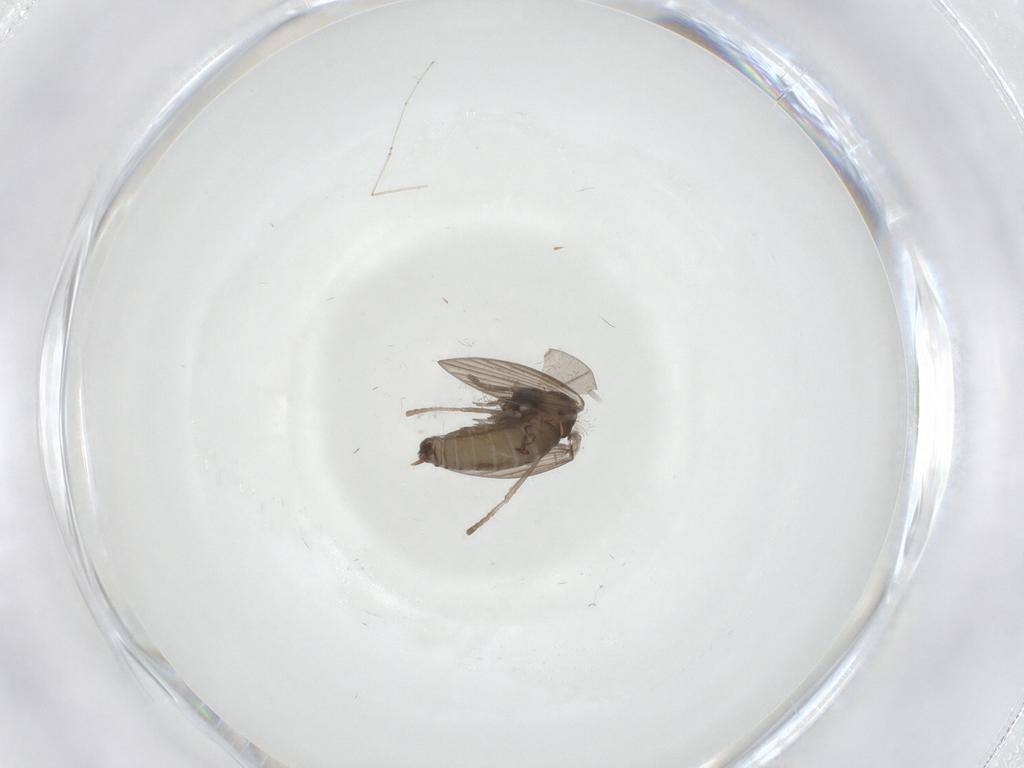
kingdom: Animalia
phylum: Arthropoda
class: Insecta
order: Diptera
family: Psychodidae
